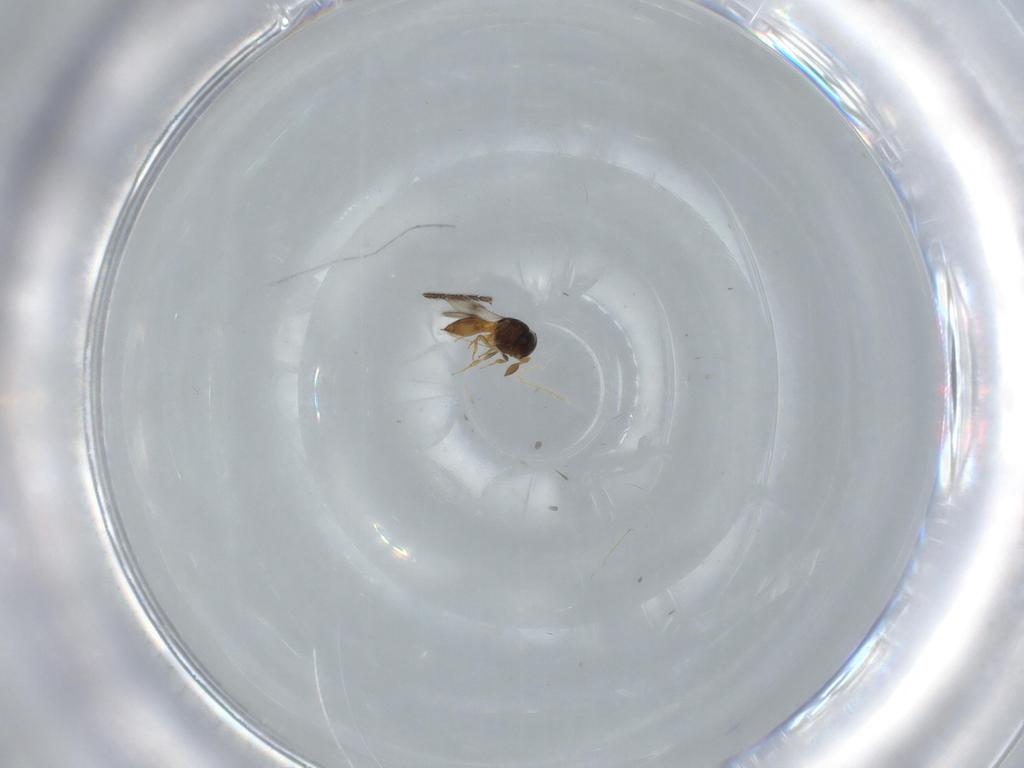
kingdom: Animalia
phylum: Arthropoda
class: Insecta
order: Hymenoptera
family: Scelionidae
